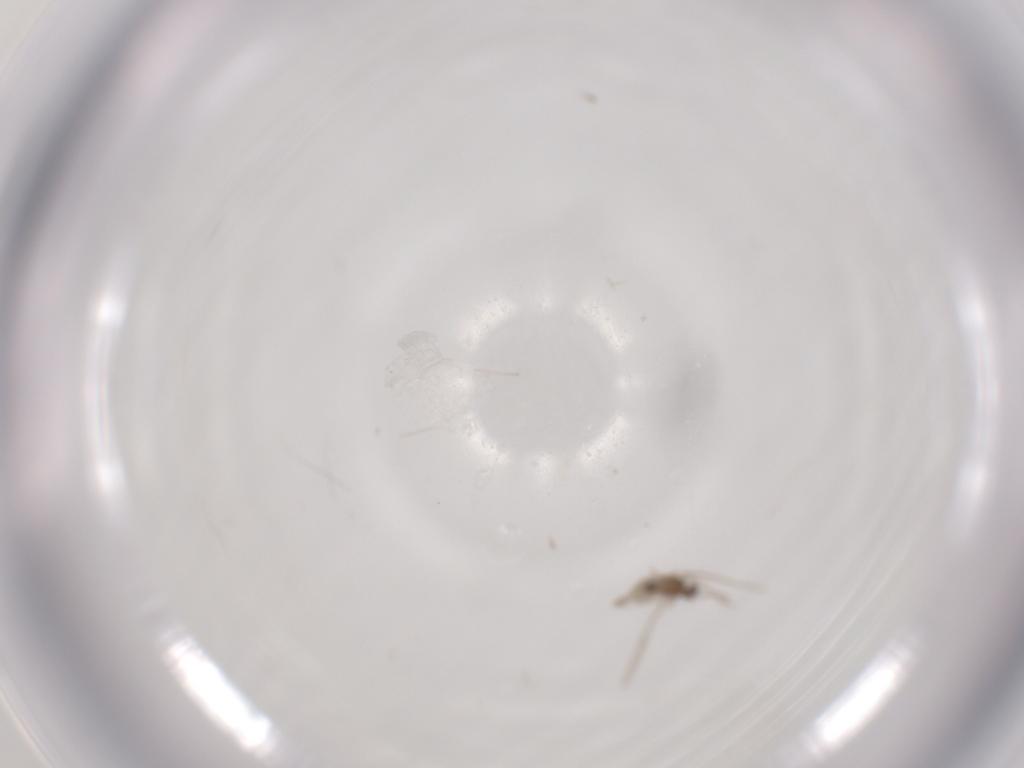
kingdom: Animalia
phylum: Arthropoda
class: Insecta
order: Diptera
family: Cecidomyiidae
